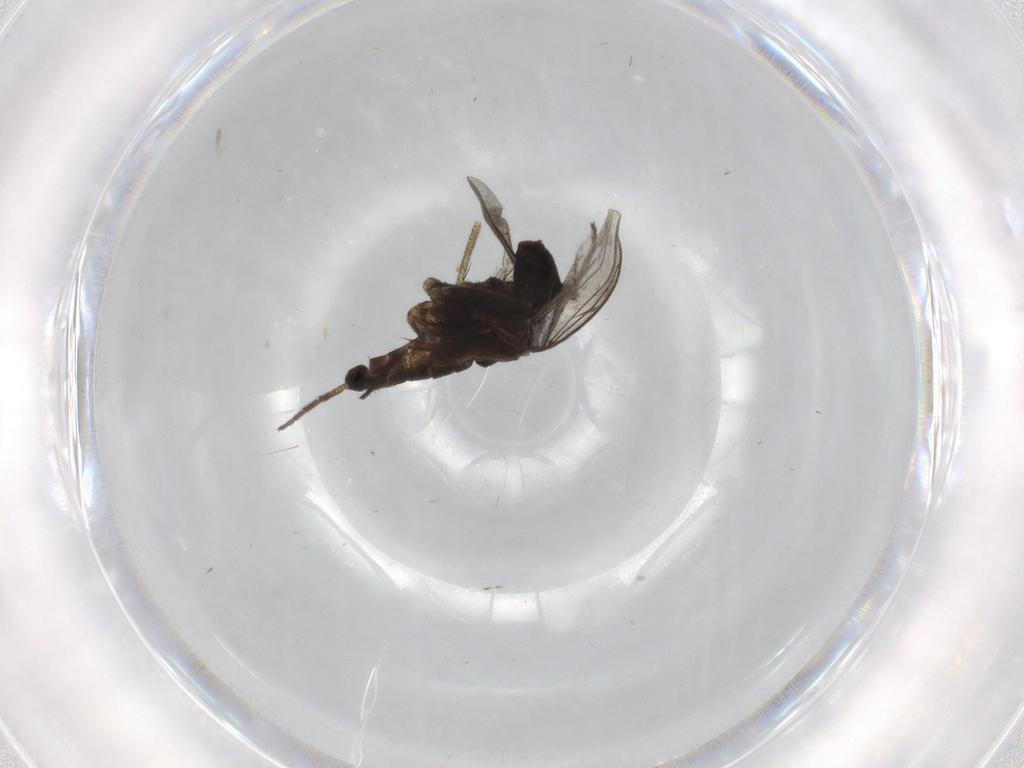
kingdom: Animalia
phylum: Arthropoda
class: Insecta
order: Diptera
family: Psychodidae
